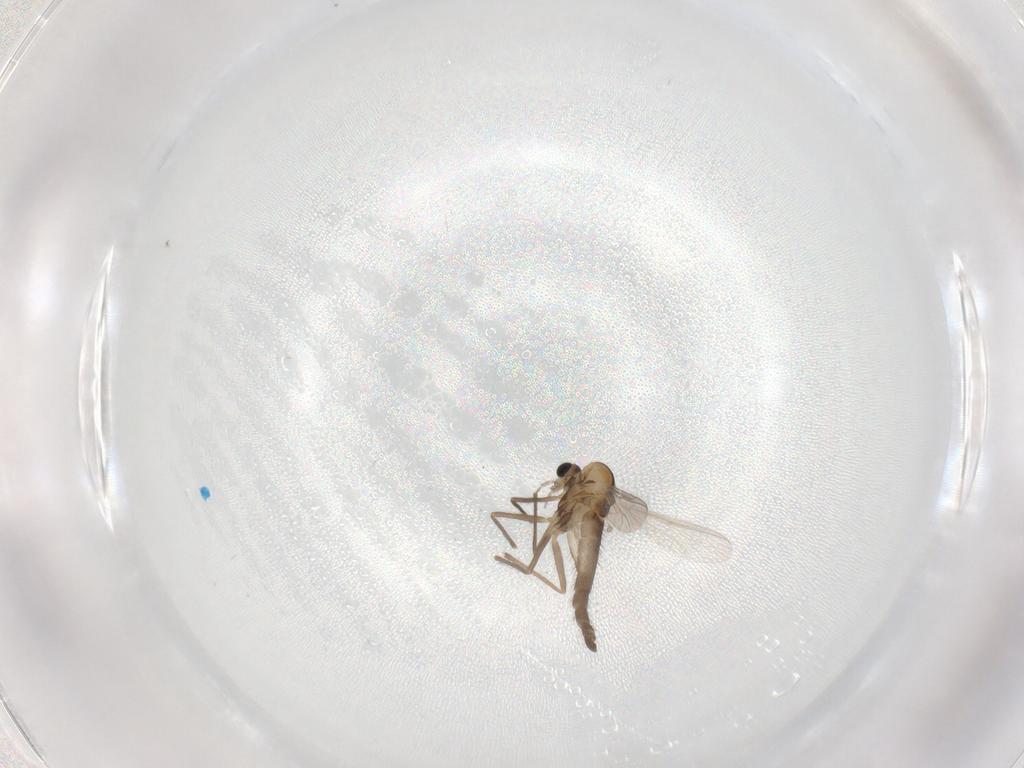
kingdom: Animalia
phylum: Arthropoda
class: Insecta
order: Diptera
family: Chironomidae
